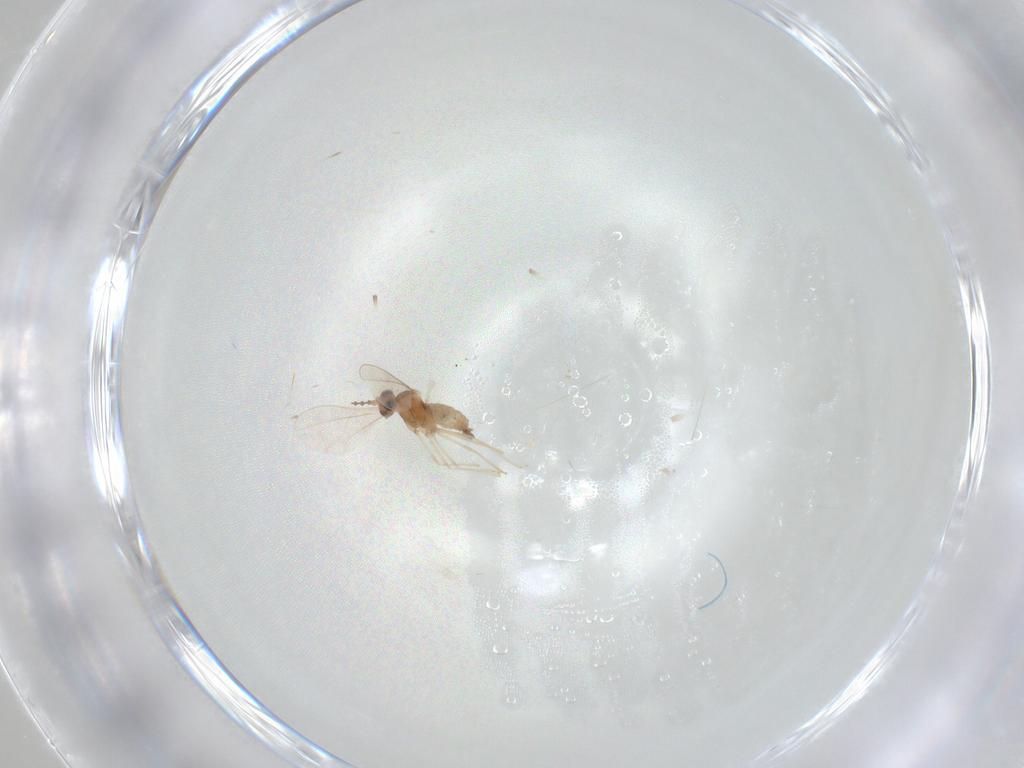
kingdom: Animalia
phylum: Arthropoda
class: Insecta
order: Diptera
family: Cecidomyiidae
